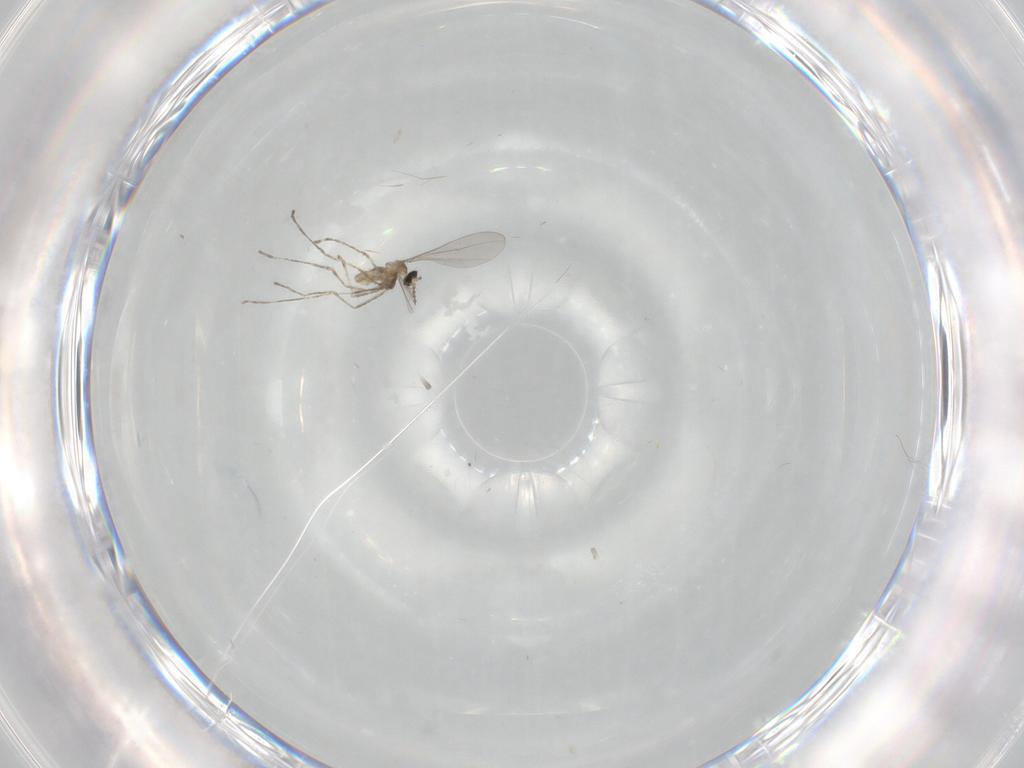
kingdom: Animalia
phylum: Arthropoda
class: Insecta
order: Diptera
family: Cecidomyiidae
